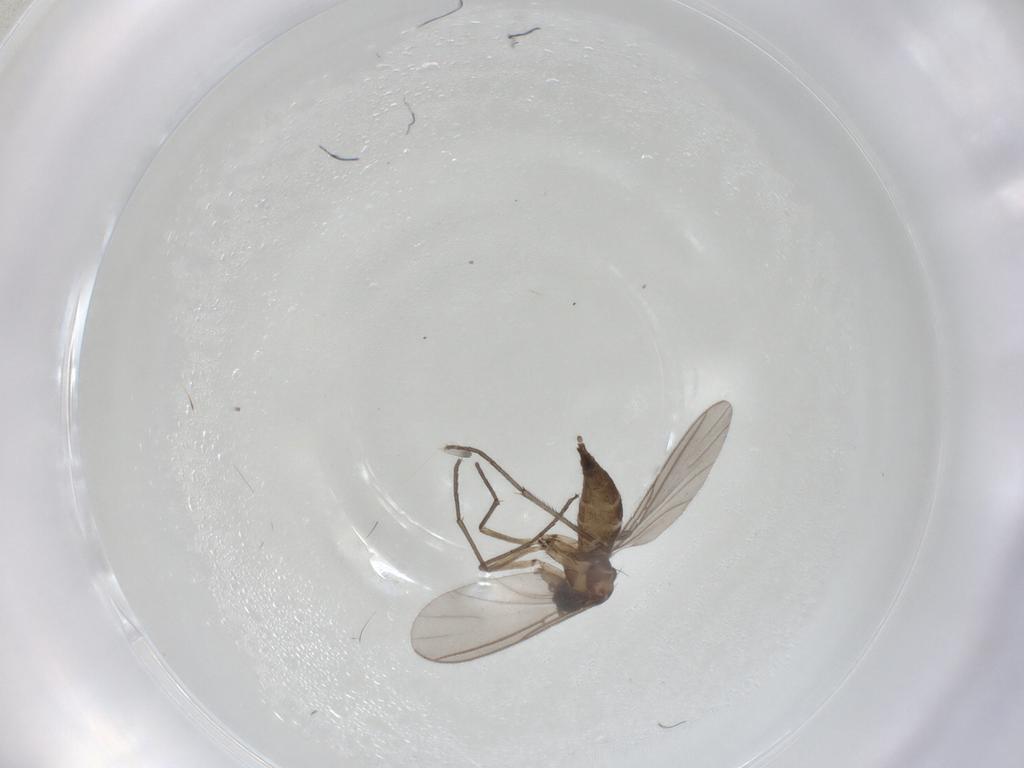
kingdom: Animalia
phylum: Arthropoda
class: Insecta
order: Diptera
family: Sciaridae
